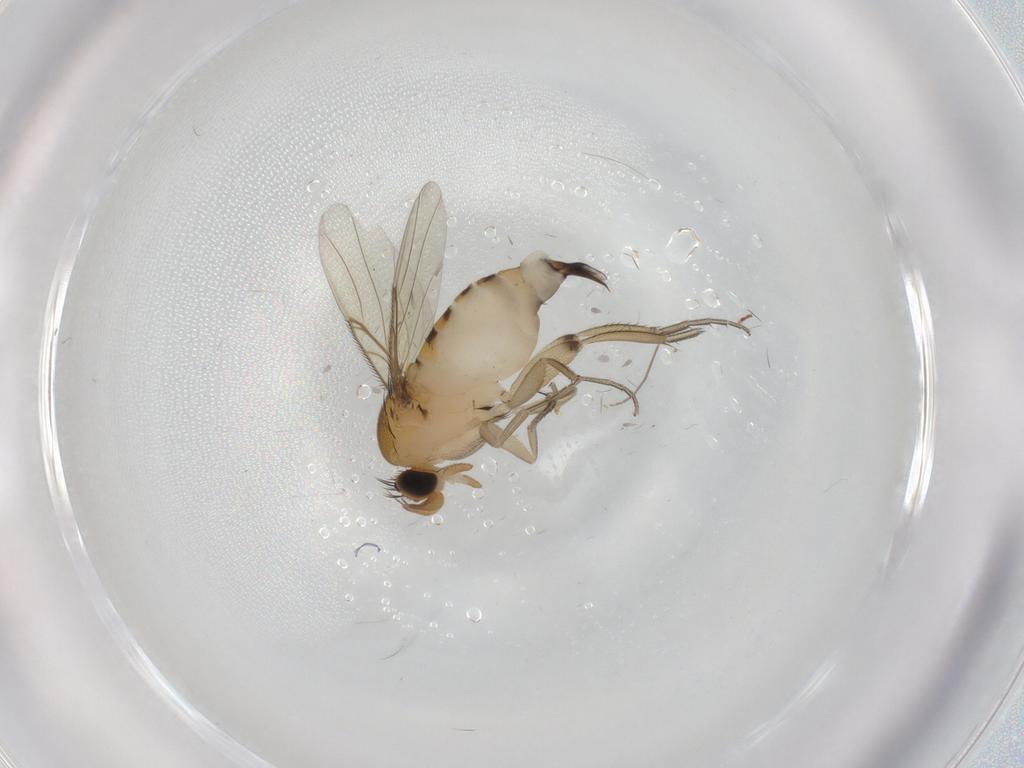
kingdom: Animalia
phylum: Arthropoda
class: Insecta
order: Diptera
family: Phoridae
